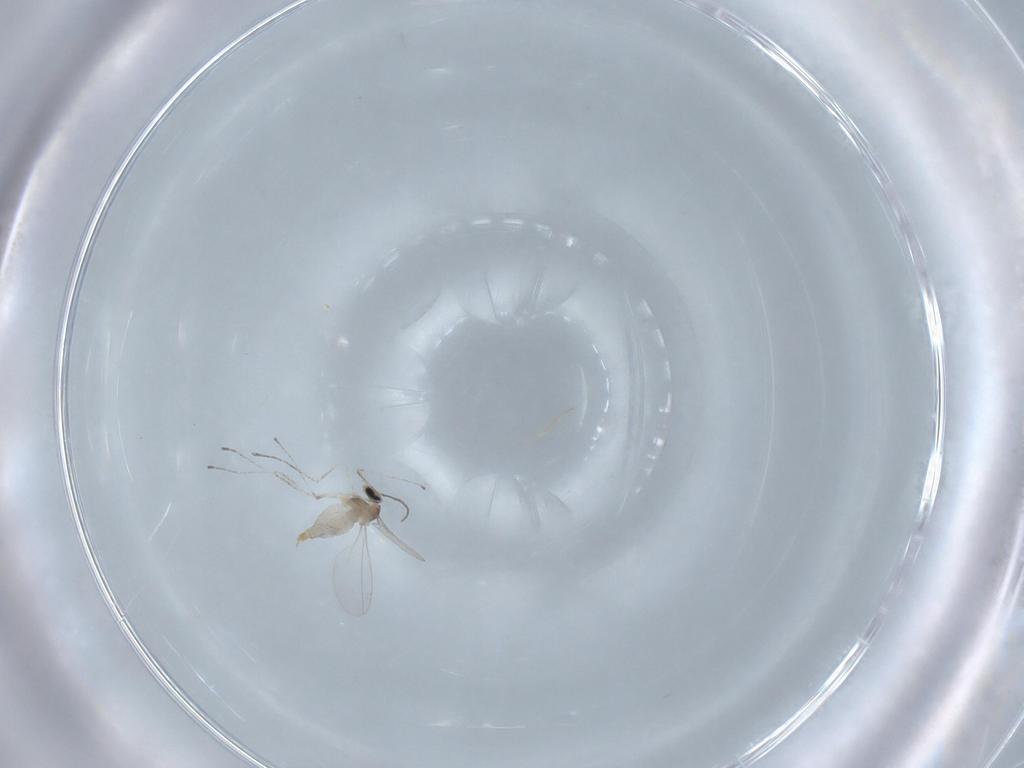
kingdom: Animalia
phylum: Arthropoda
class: Insecta
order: Diptera
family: Cecidomyiidae
